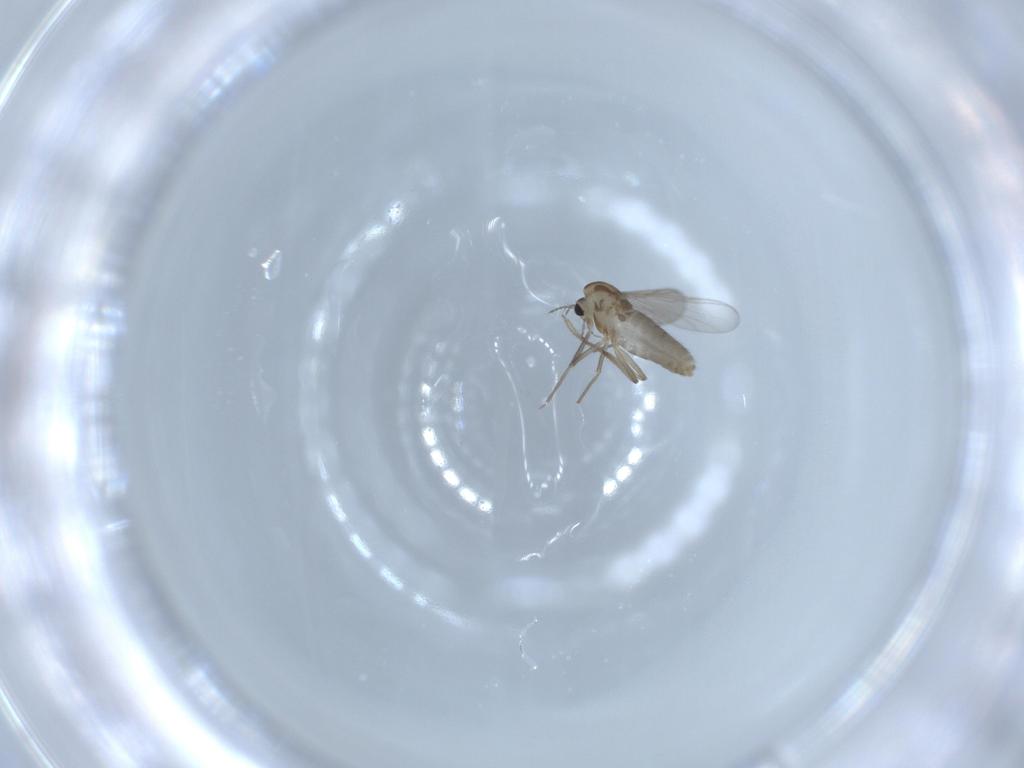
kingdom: Animalia
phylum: Arthropoda
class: Insecta
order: Diptera
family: Chironomidae
